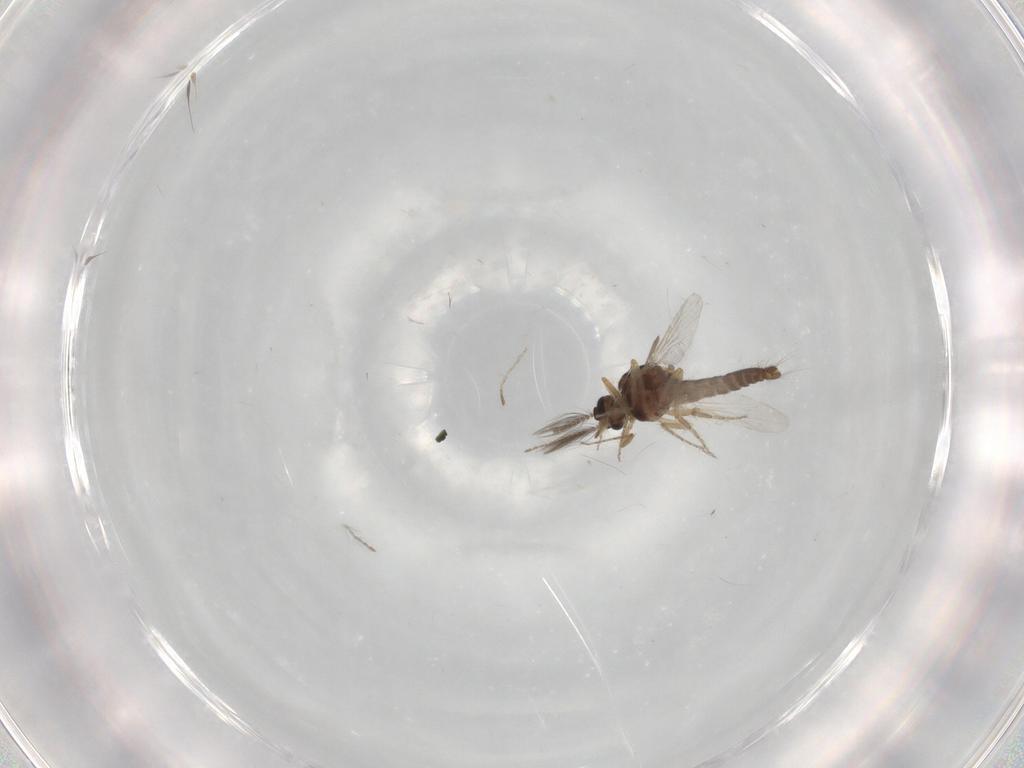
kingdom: Animalia
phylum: Arthropoda
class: Insecta
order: Diptera
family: Ceratopogonidae
